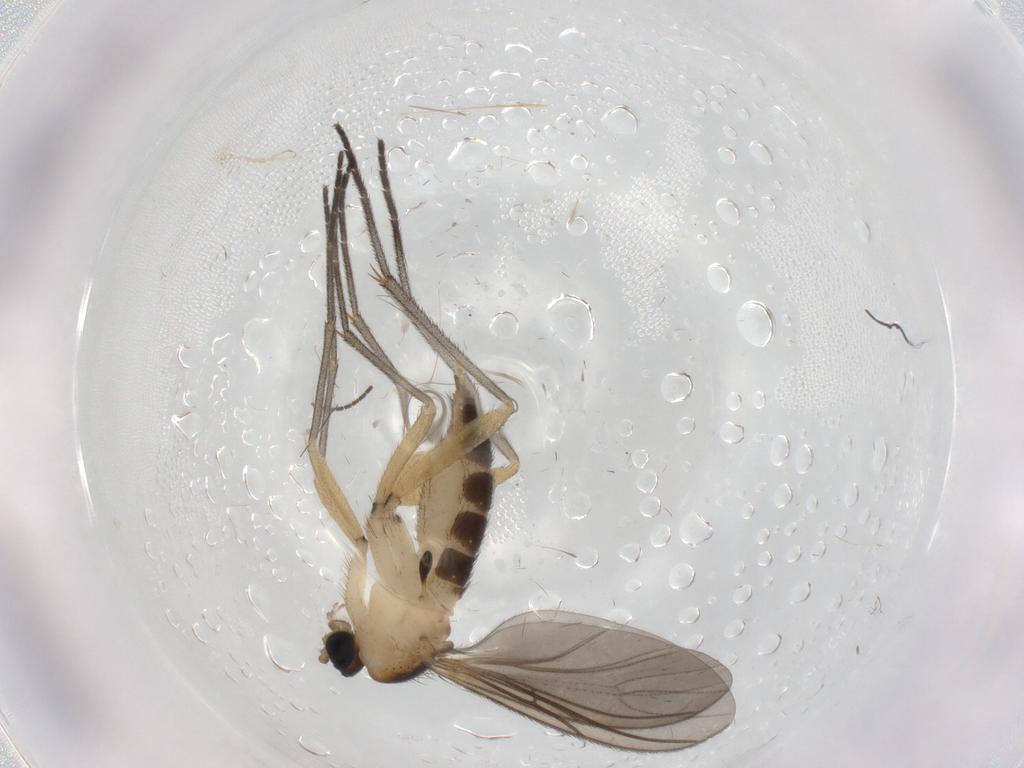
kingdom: Animalia
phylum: Arthropoda
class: Insecta
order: Diptera
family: Sciaridae
